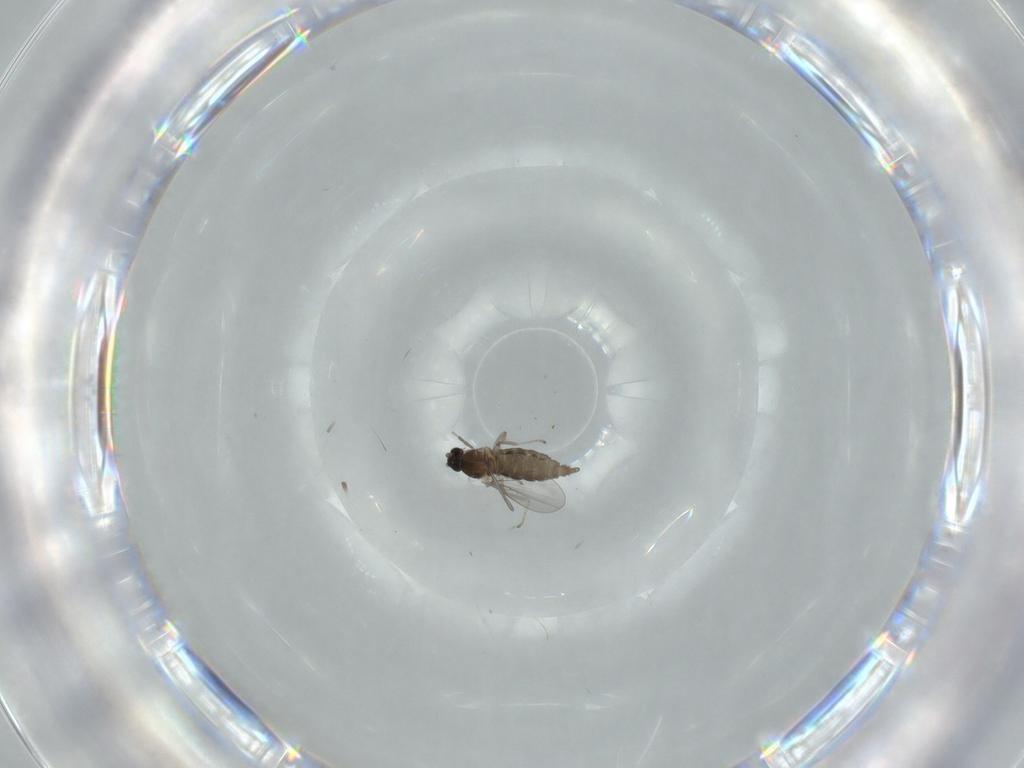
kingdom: Animalia
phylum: Arthropoda
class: Insecta
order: Diptera
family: Cecidomyiidae
